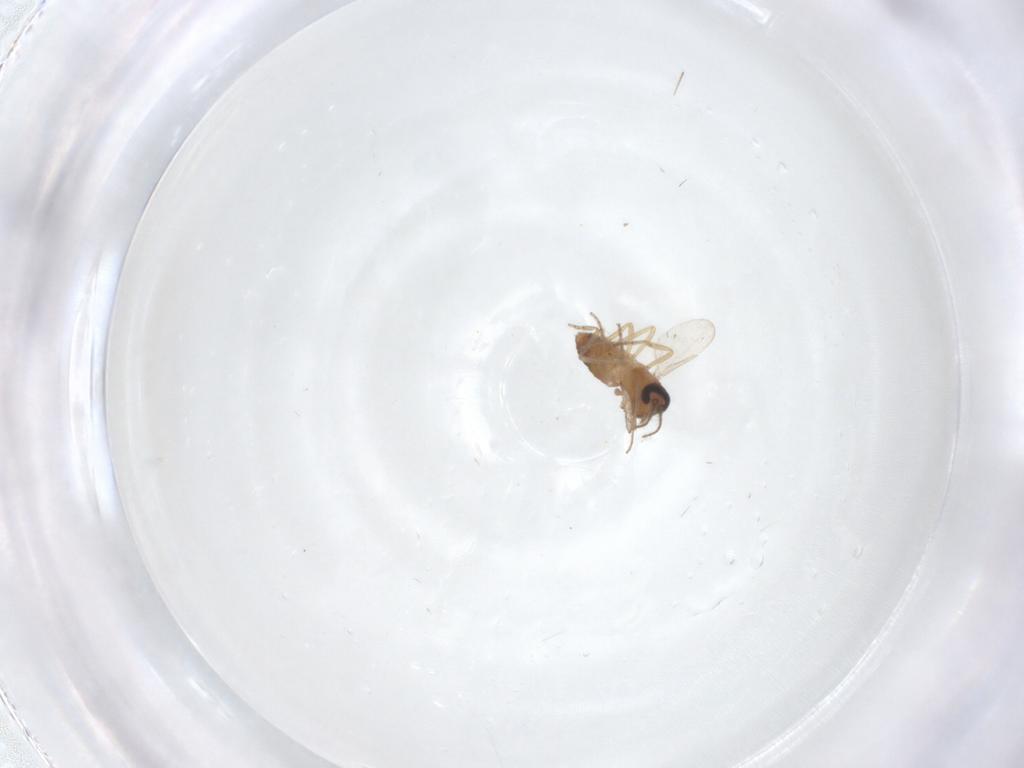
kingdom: Animalia
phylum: Arthropoda
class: Insecta
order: Diptera
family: Ceratopogonidae
